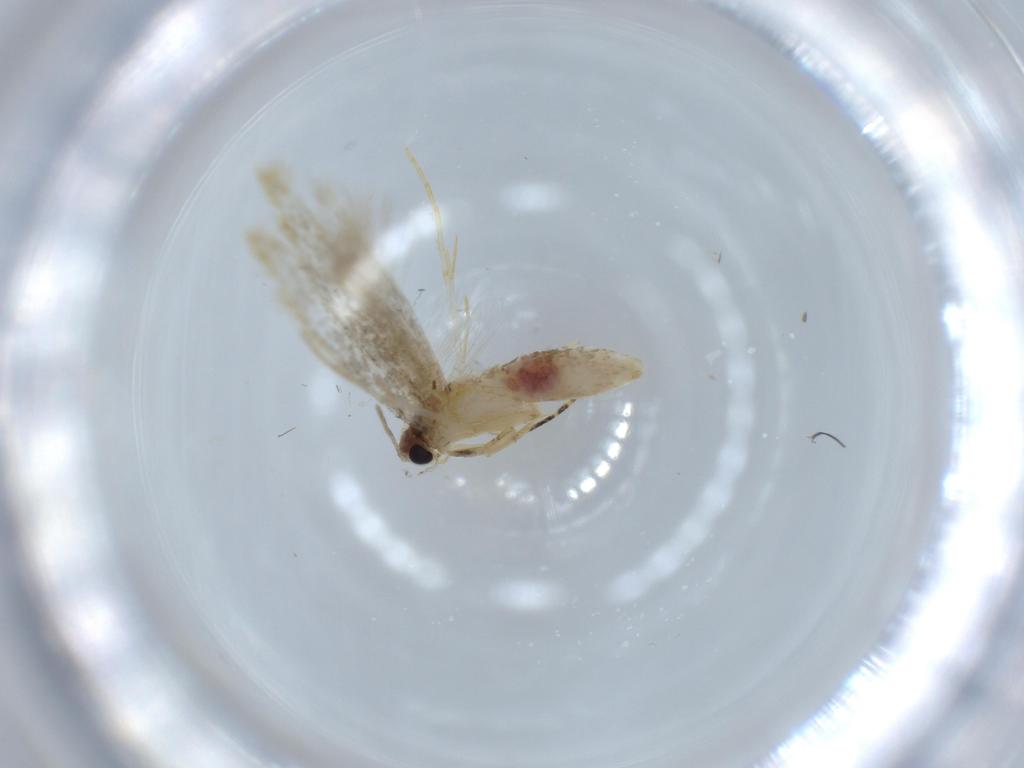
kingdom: Animalia
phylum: Arthropoda
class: Insecta
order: Lepidoptera
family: Tineidae
